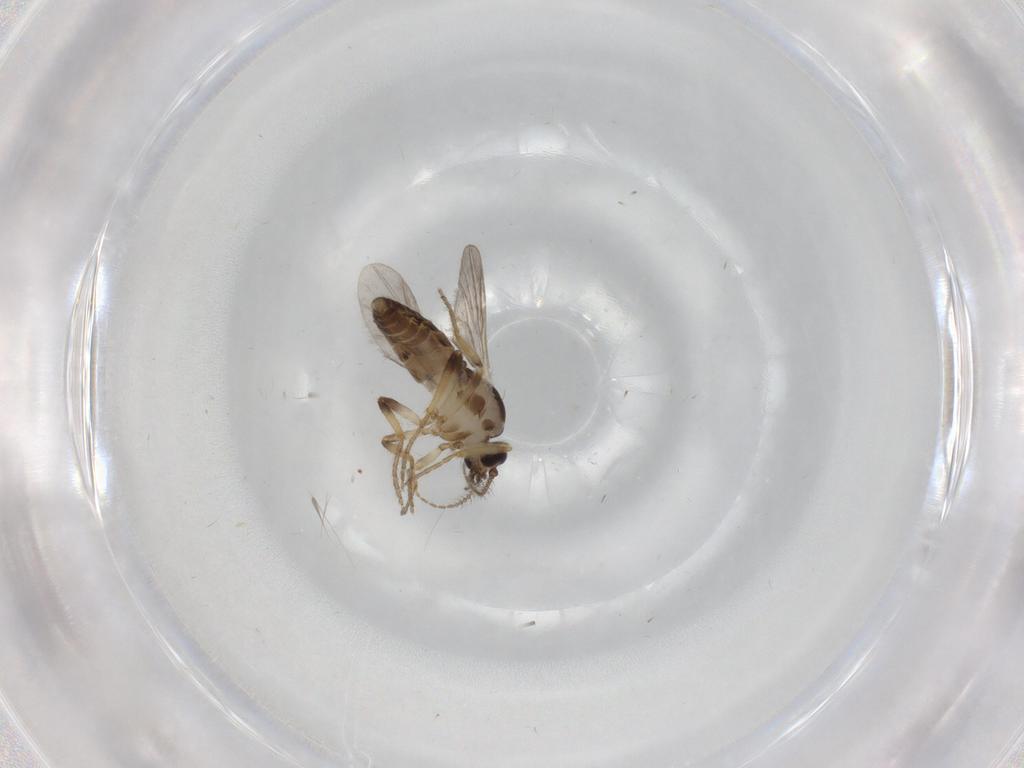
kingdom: Animalia
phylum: Arthropoda
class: Insecta
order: Diptera
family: Ceratopogonidae
